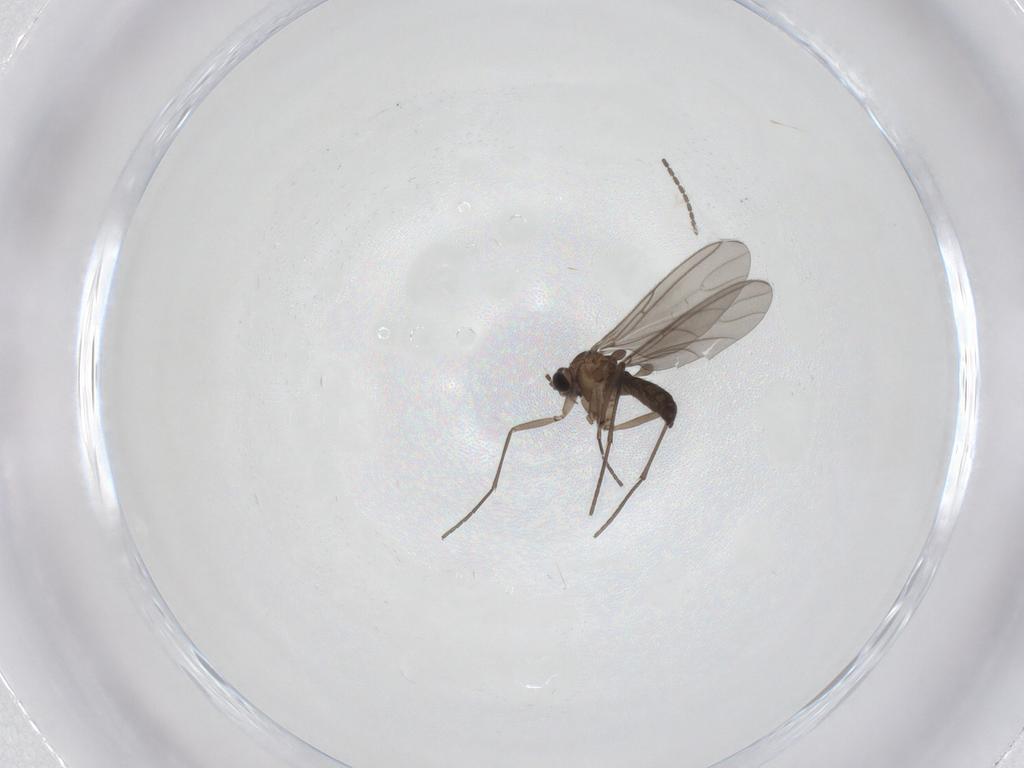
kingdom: Animalia
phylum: Arthropoda
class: Insecta
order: Diptera
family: Sciaridae
